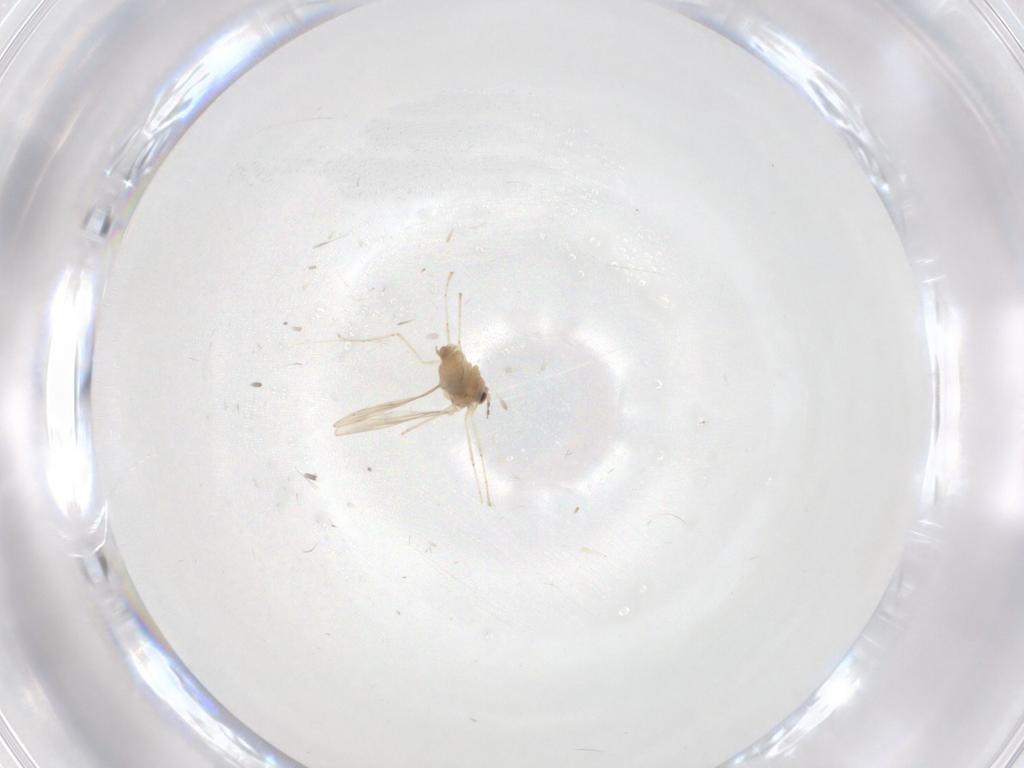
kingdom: Animalia
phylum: Arthropoda
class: Insecta
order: Diptera
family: Cecidomyiidae
